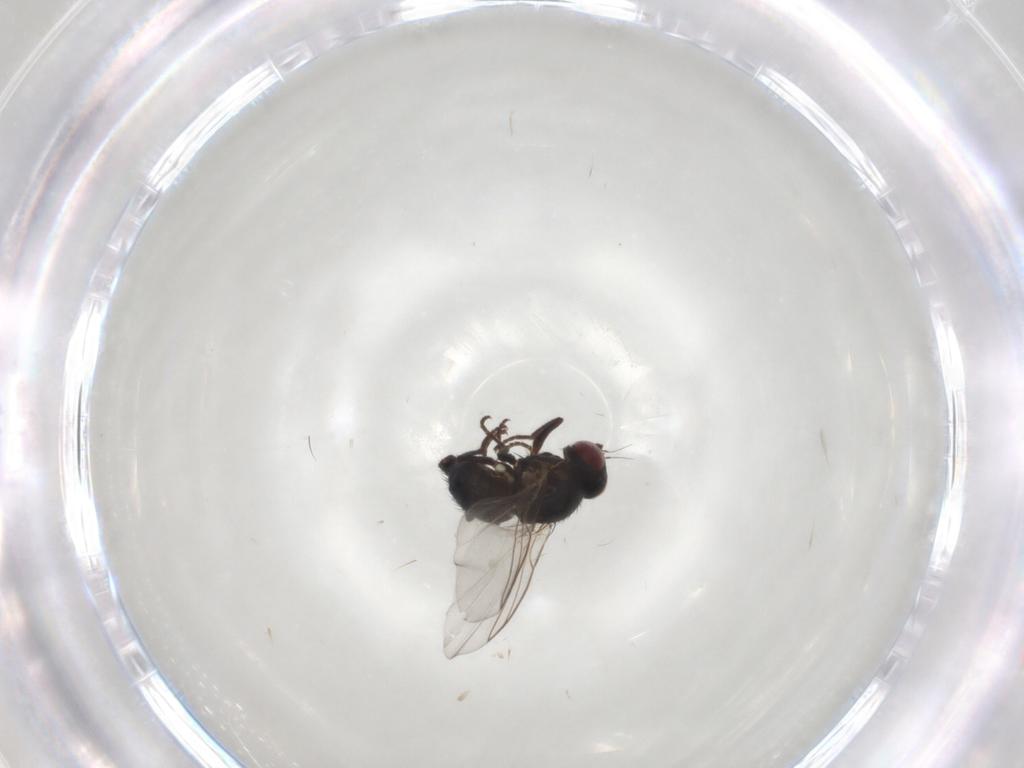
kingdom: Animalia
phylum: Arthropoda
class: Insecta
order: Diptera
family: Agromyzidae
